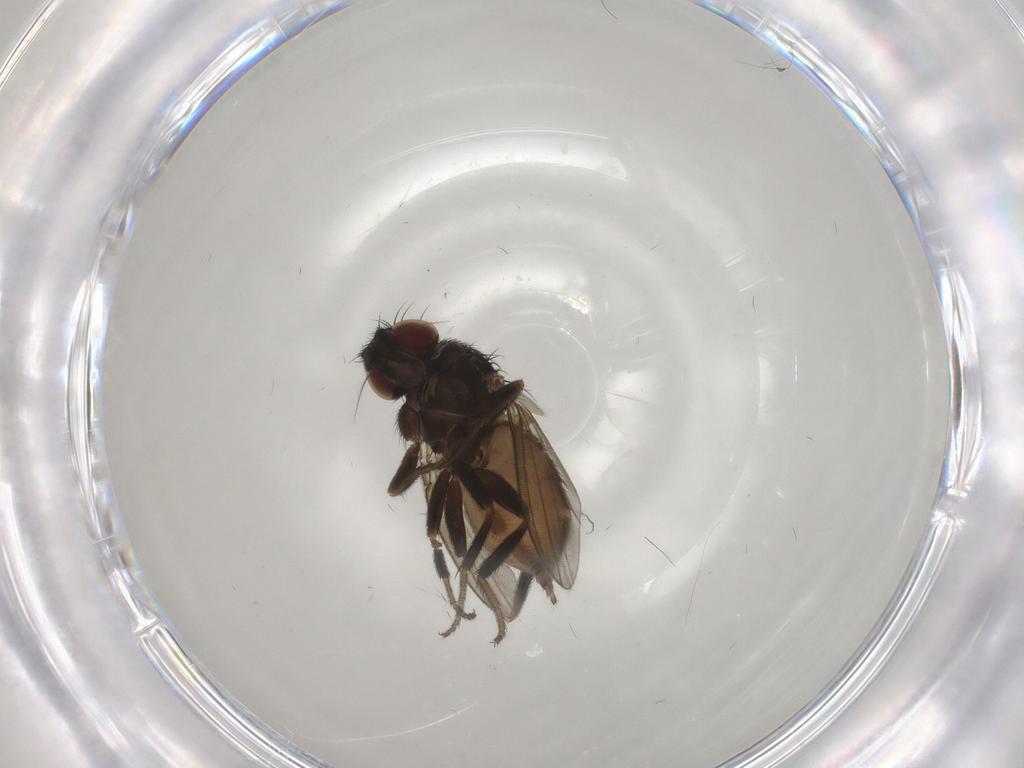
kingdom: Animalia
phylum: Arthropoda
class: Insecta
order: Diptera
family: Milichiidae
